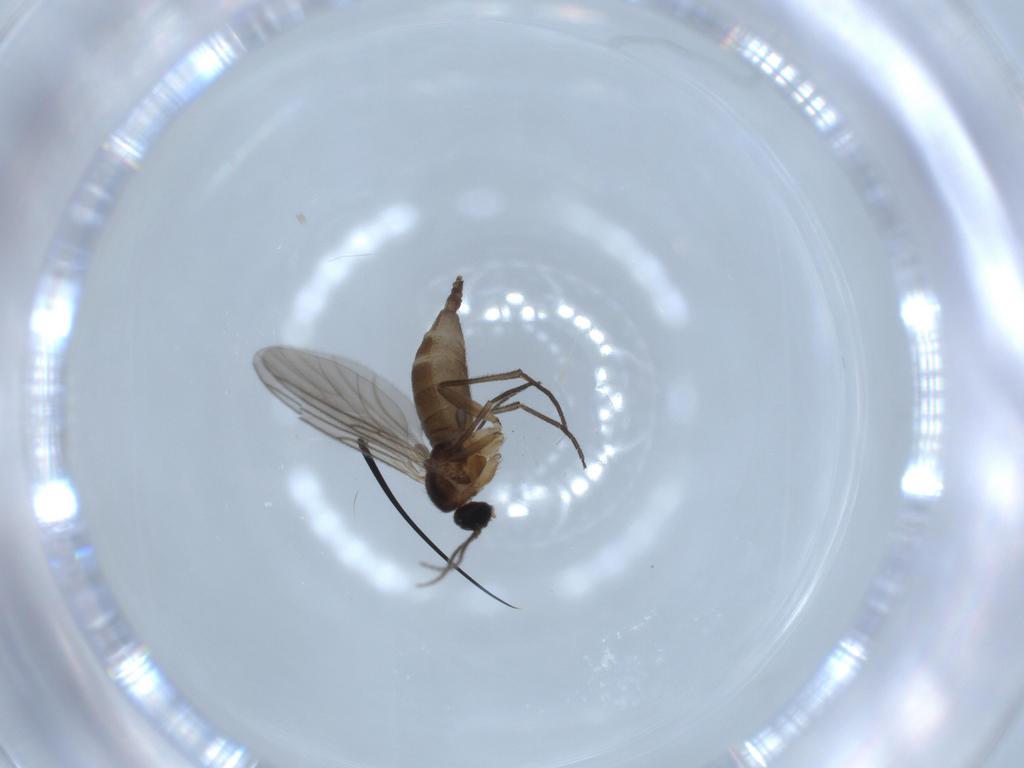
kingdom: Animalia
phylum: Arthropoda
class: Insecta
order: Diptera
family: Sciaridae
